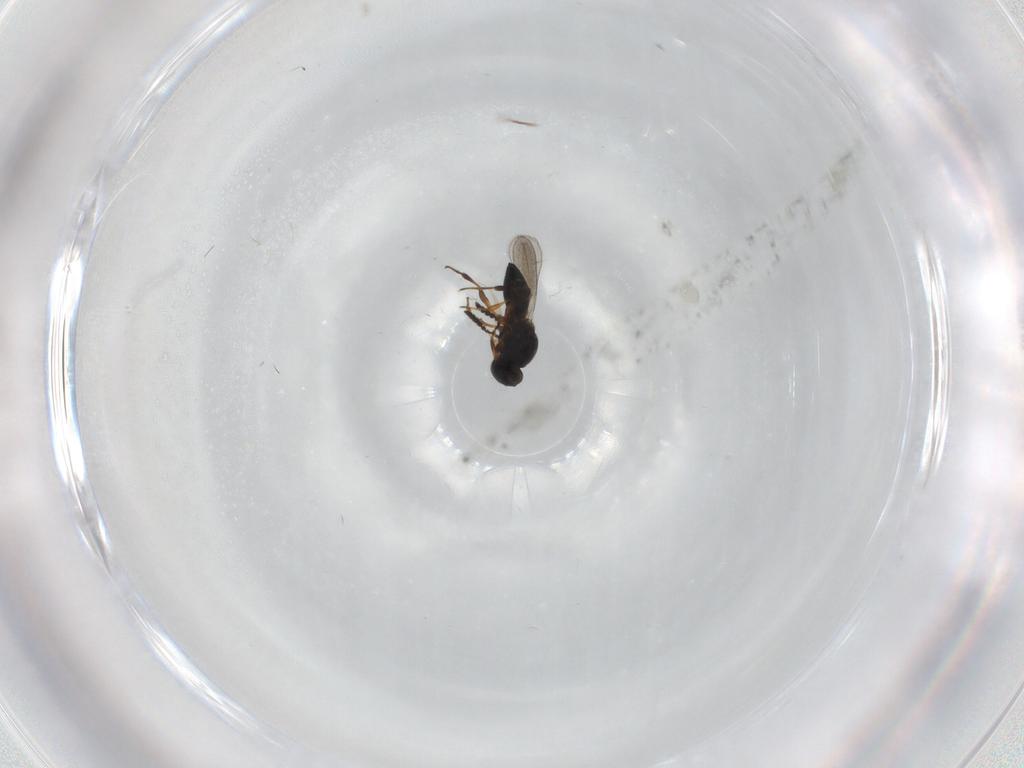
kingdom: Animalia
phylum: Arthropoda
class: Insecta
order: Hymenoptera
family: Platygastridae
